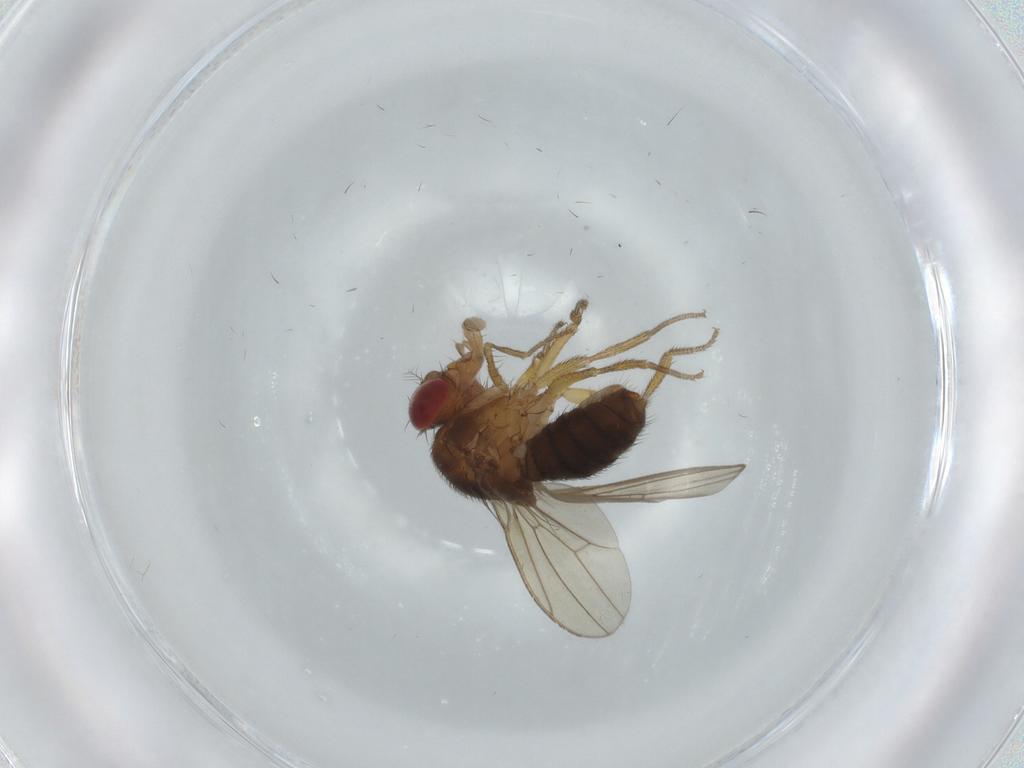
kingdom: Animalia
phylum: Arthropoda
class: Insecta
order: Diptera
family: Drosophilidae
